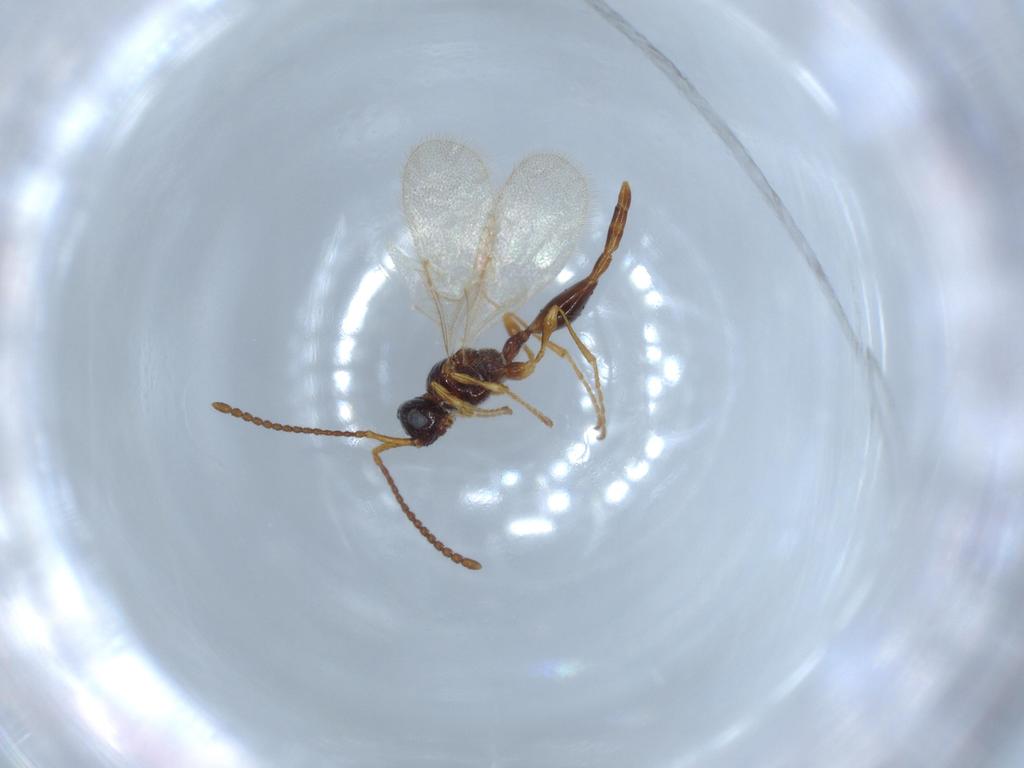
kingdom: Animalia
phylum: Arthropoda
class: Insecta
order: Hymenoptera
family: Diapriidae
